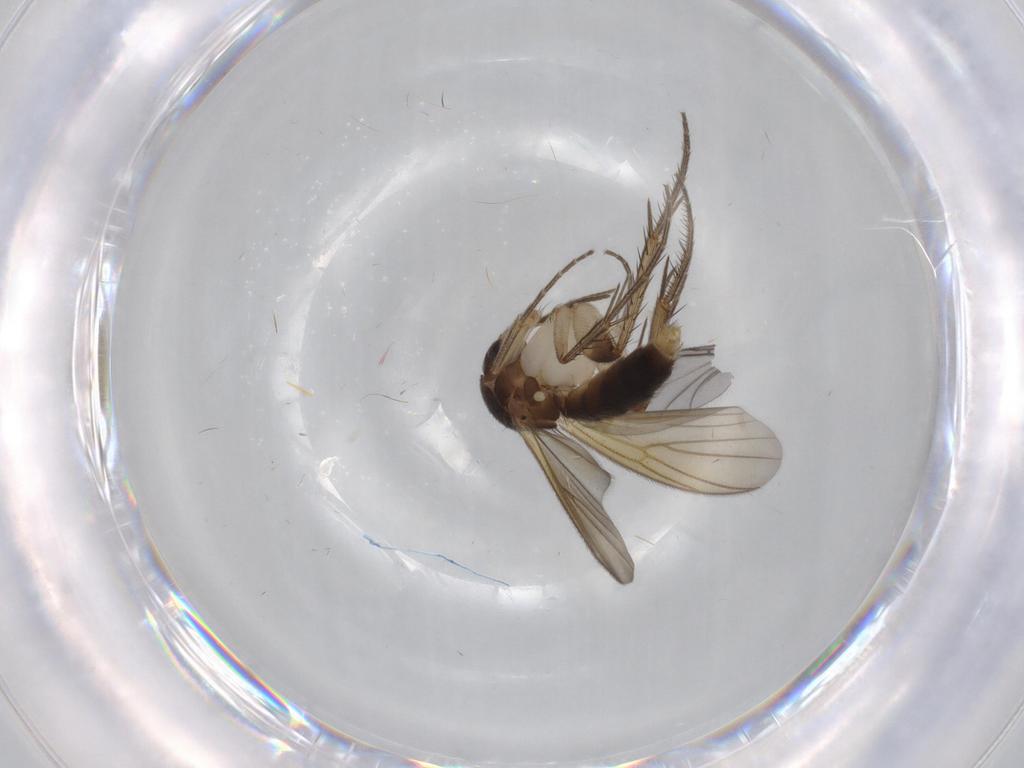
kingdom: Animalia
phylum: Arthropoda
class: Insecta
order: Diptera
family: Mycetophilidae
